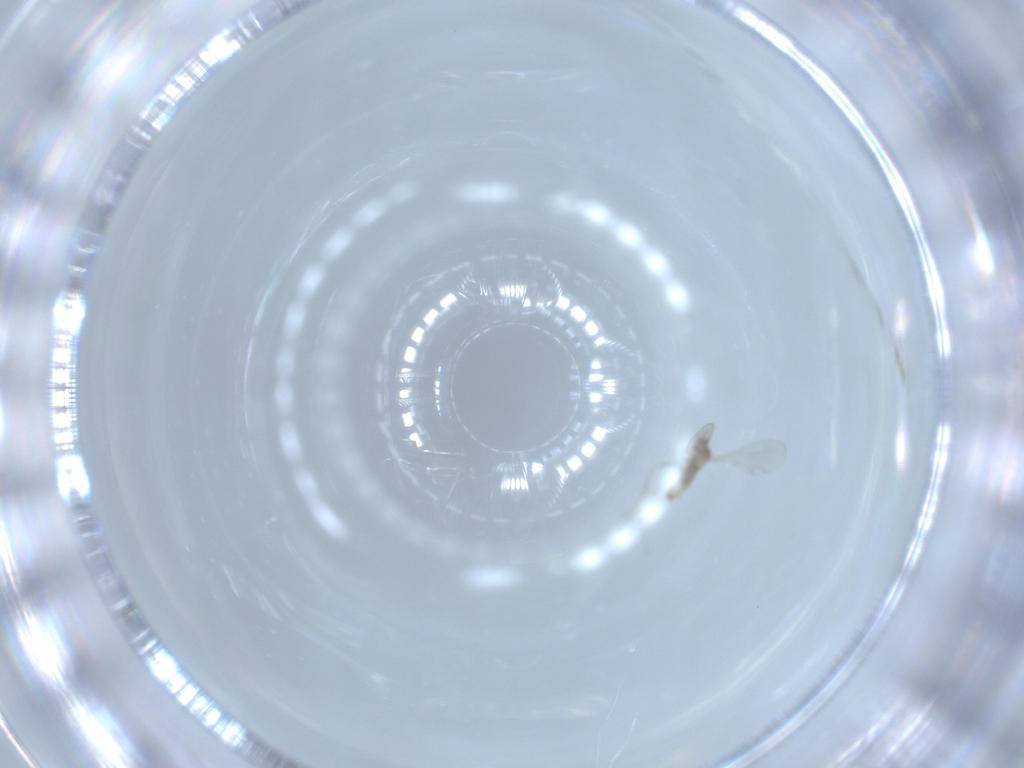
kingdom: Animalia
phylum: Arthropoda
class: Insecta
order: Diptera
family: Cecidomyiidae
